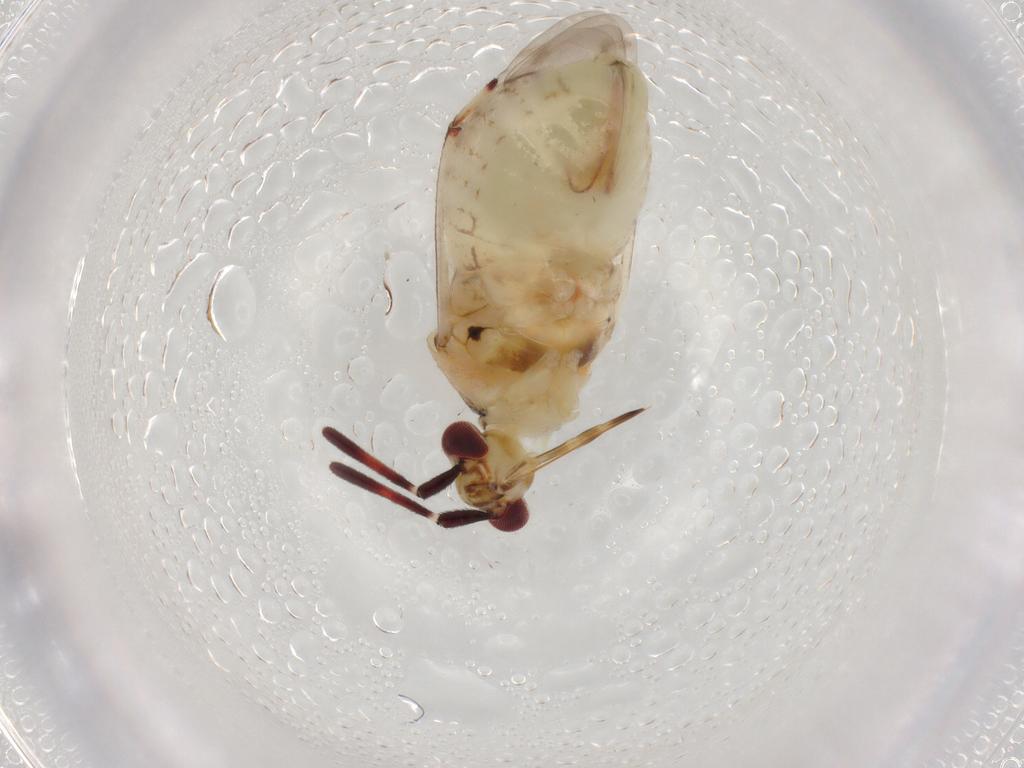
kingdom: Animalia
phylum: Arthropoda
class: Insecta
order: Hemiptera
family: Miridae
